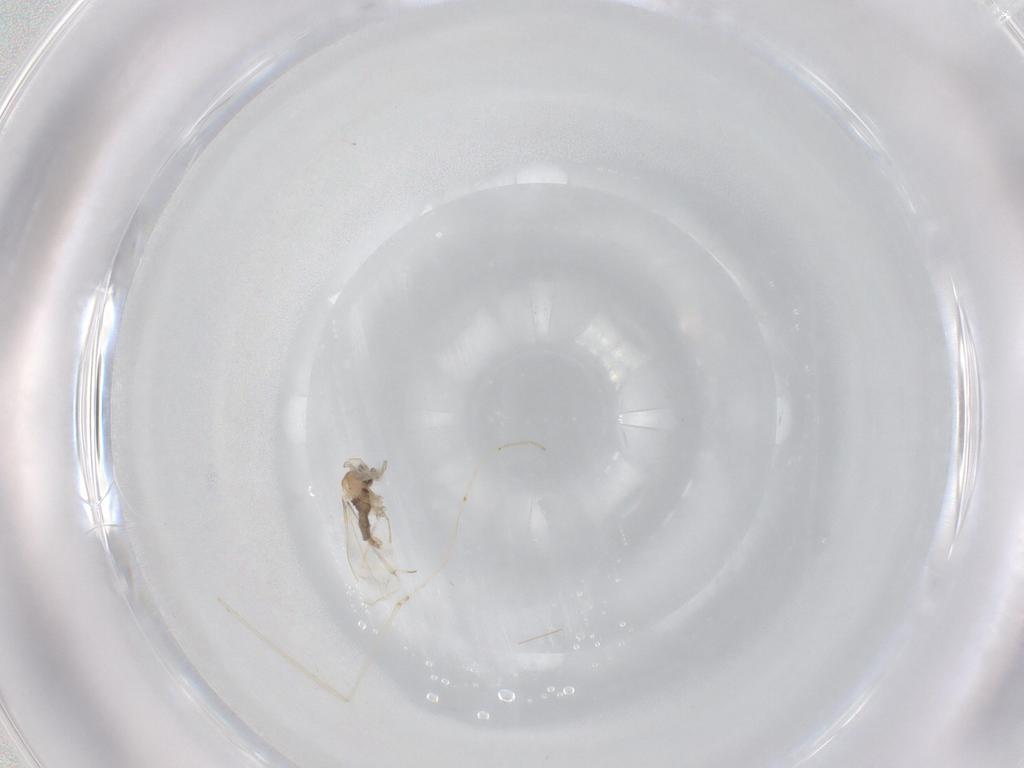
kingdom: Animalia
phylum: Arthropoda
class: Insecta
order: Diptera
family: Cecidomyiidae
